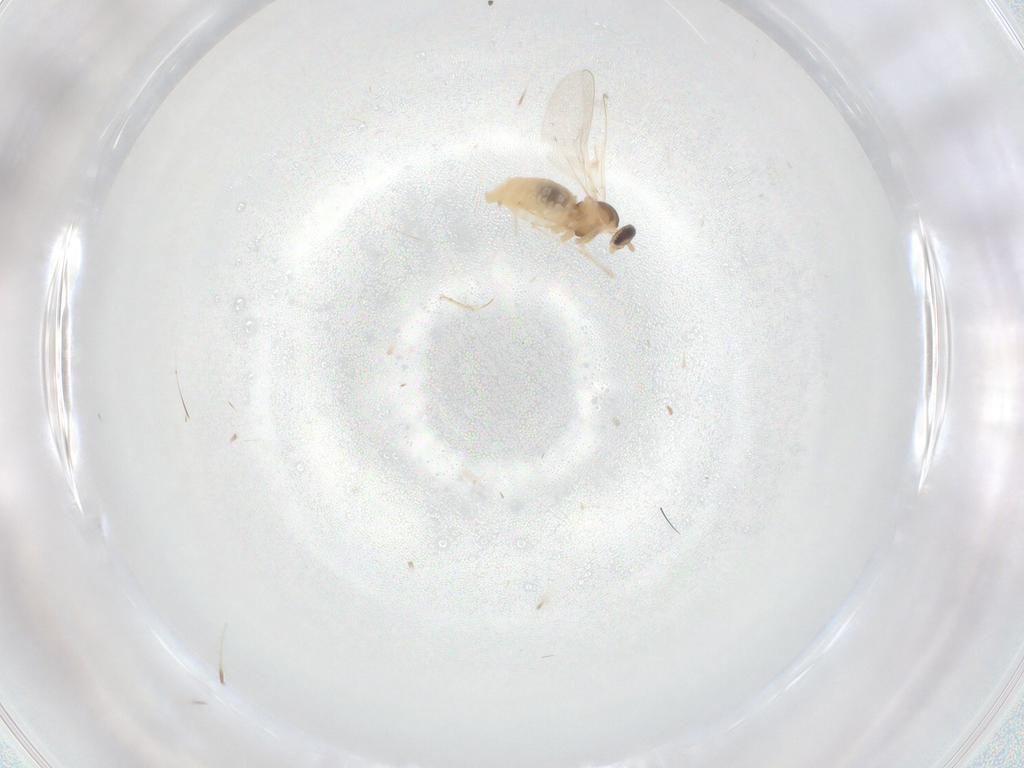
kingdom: Animalia
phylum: Arthropoda
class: Insecta
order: Diptera
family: Cecidomyiidae
